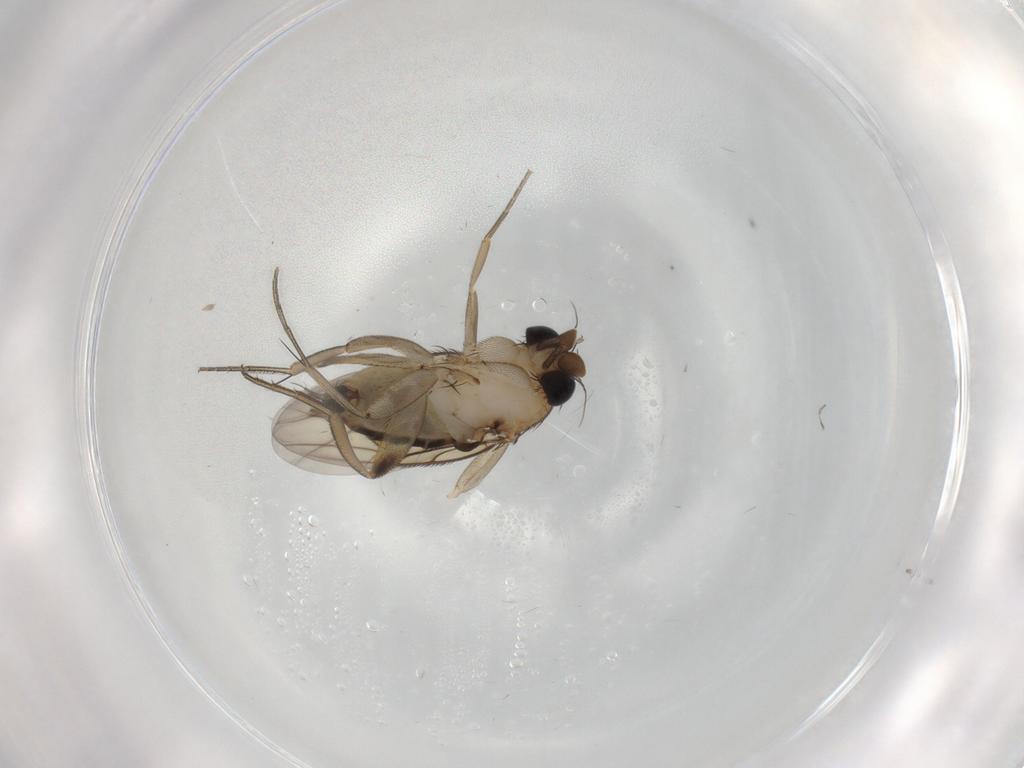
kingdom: Animalia
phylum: Arthropoda
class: Insecta
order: Diptera
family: Phoridae
